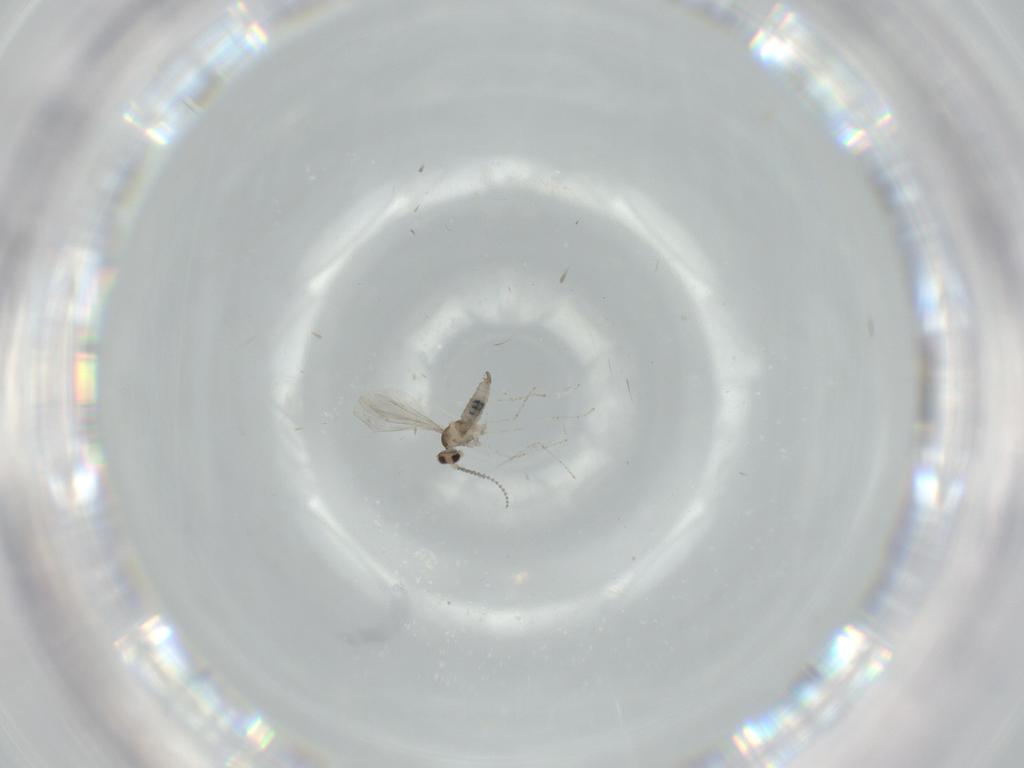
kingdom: Animalia
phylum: Arthropoda
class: Insecta
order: Diptera
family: Cecidomyiidae
